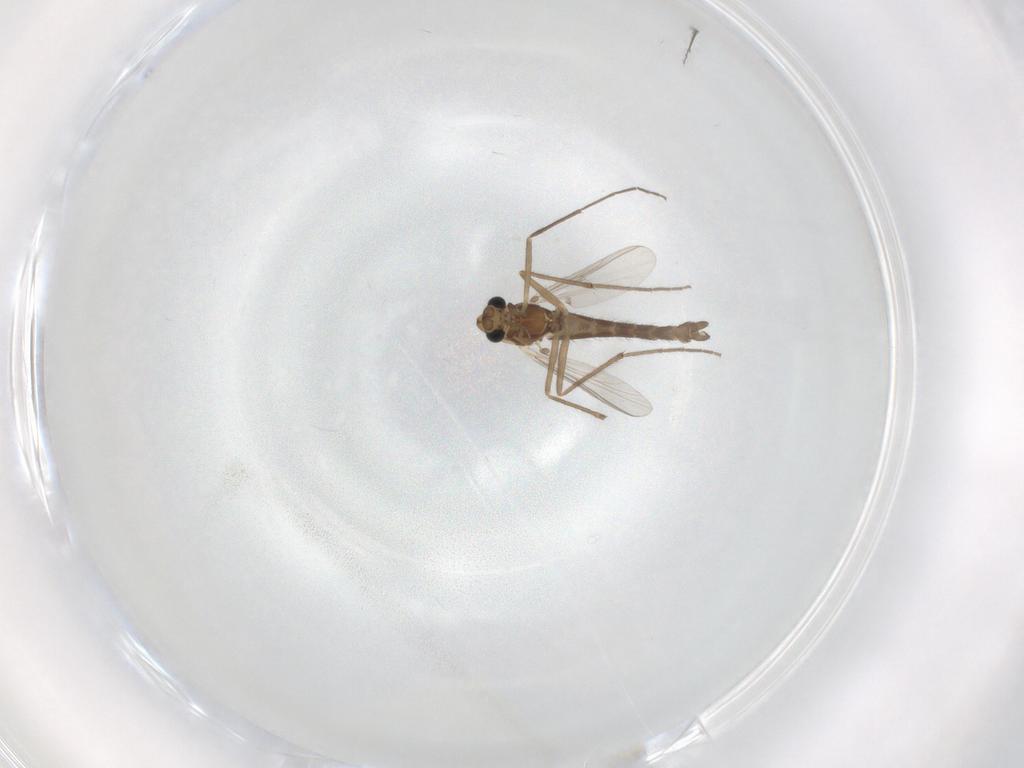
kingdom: Animalia
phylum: Arthropoda
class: Insecta
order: Diptera
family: Chironomidae
